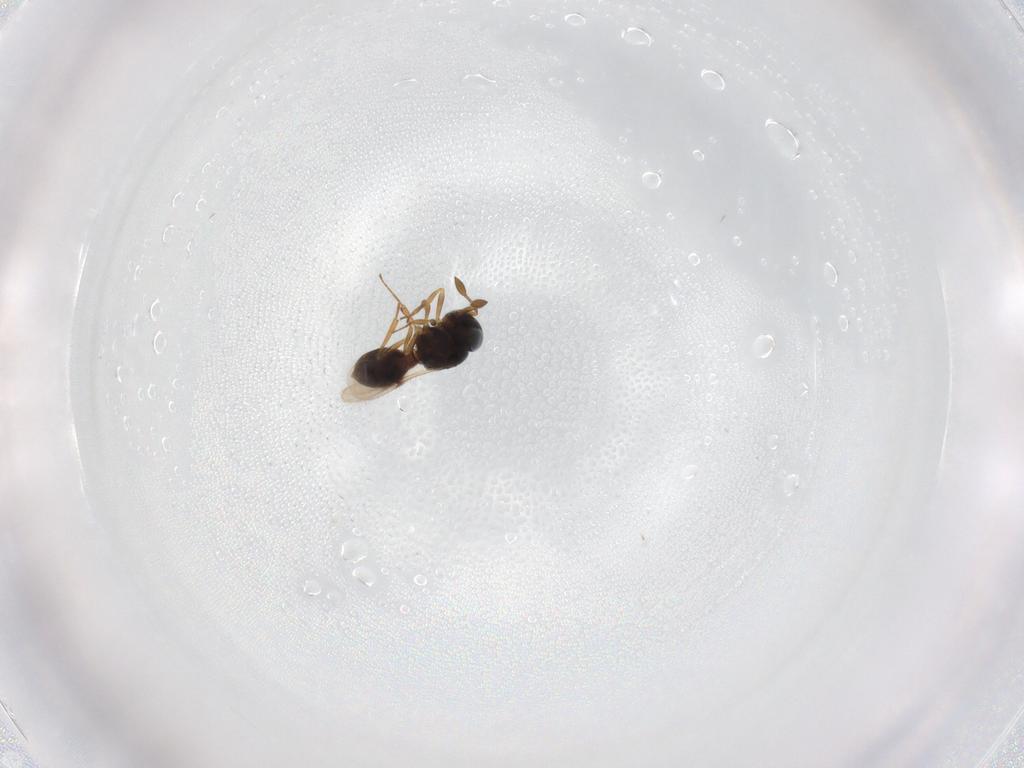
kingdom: Animalia
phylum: Arthropoda
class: Insecta
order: Hymenoptera
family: Scelionidae
